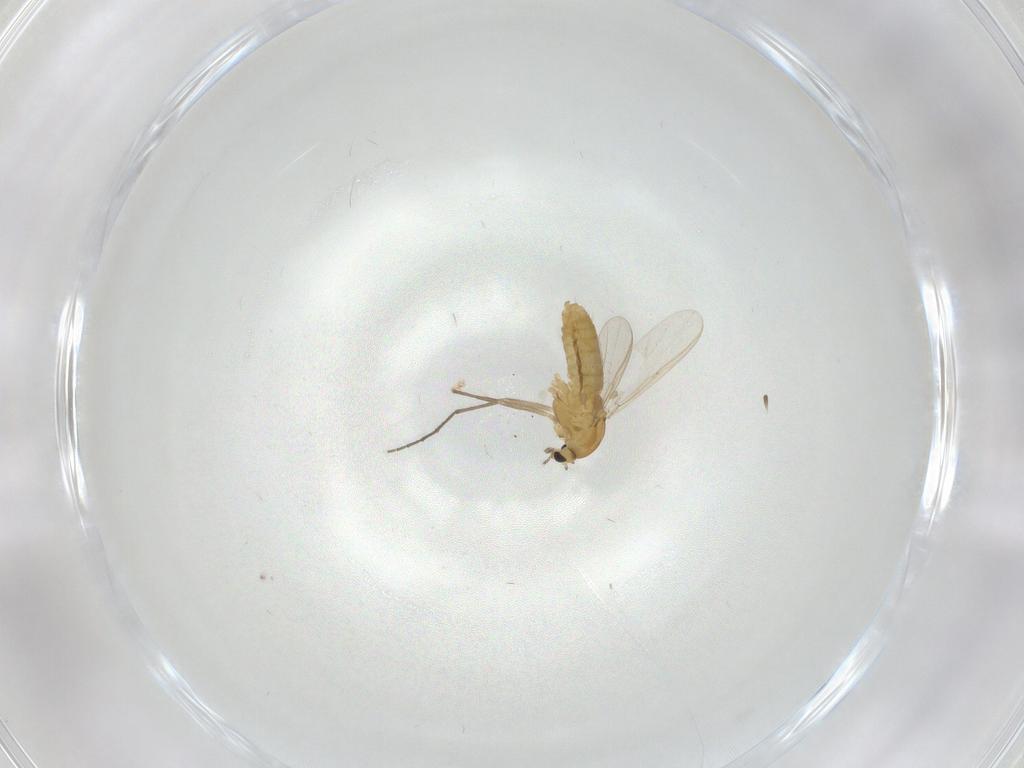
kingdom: Animalia
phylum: Arthropoda
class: Insecta
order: Diptera
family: Chironomidae
